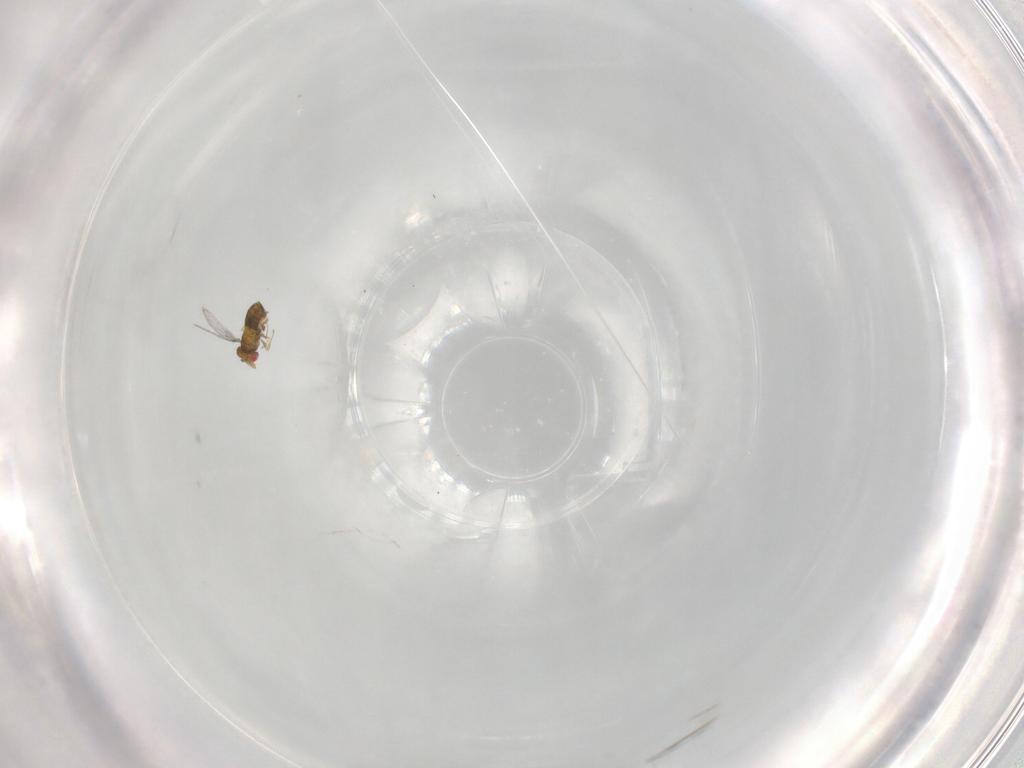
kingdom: Animalia
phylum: Arthropoda
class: Insecta
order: Hymenoptera
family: Trichogrammatidae
